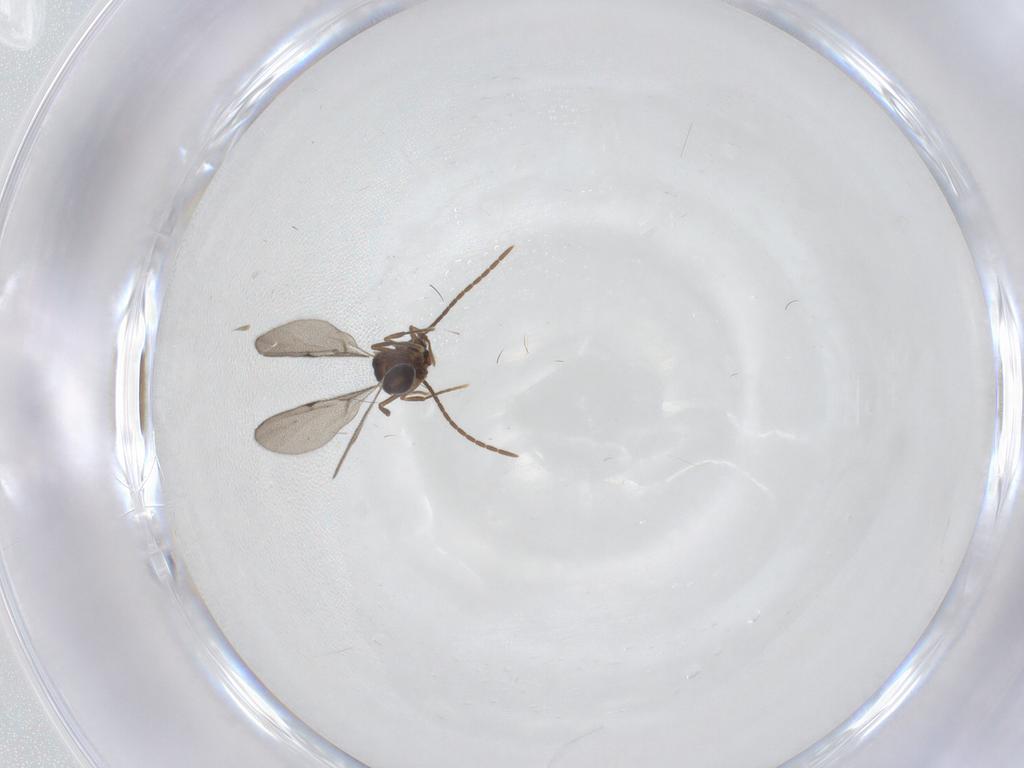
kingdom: Animalia
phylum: Arthropoda
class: Insecta
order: Hymenoptera
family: Formicidae
